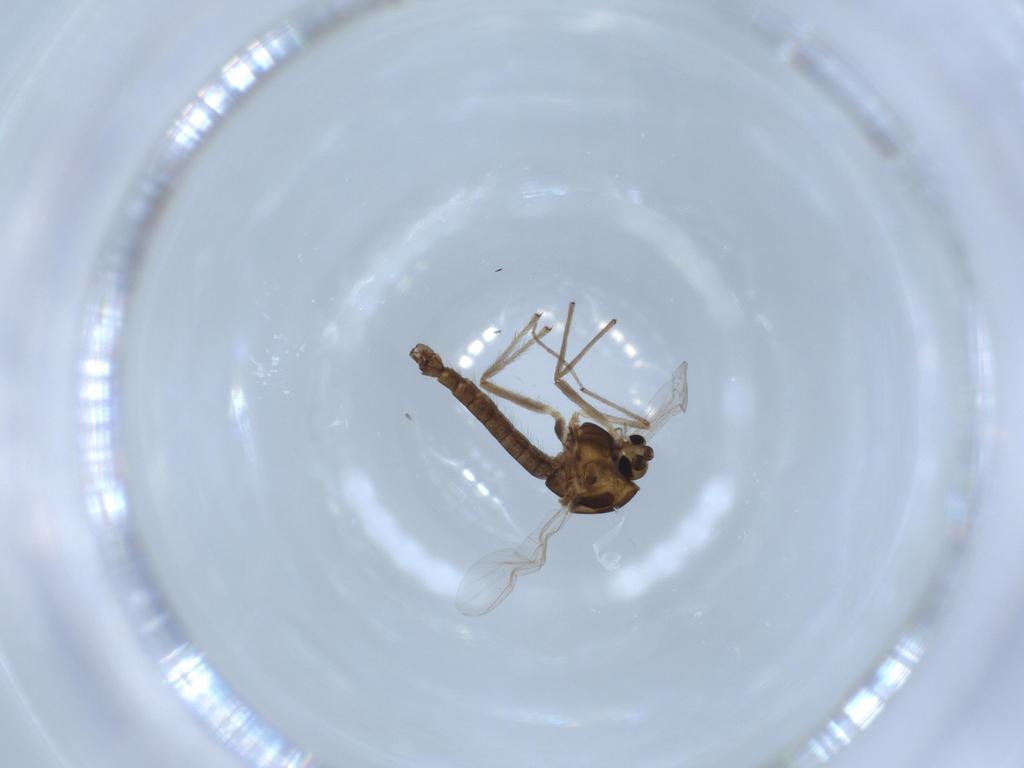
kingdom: Animalia
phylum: Arthropoda
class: Insecta
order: Diptera
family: Chironomidae
